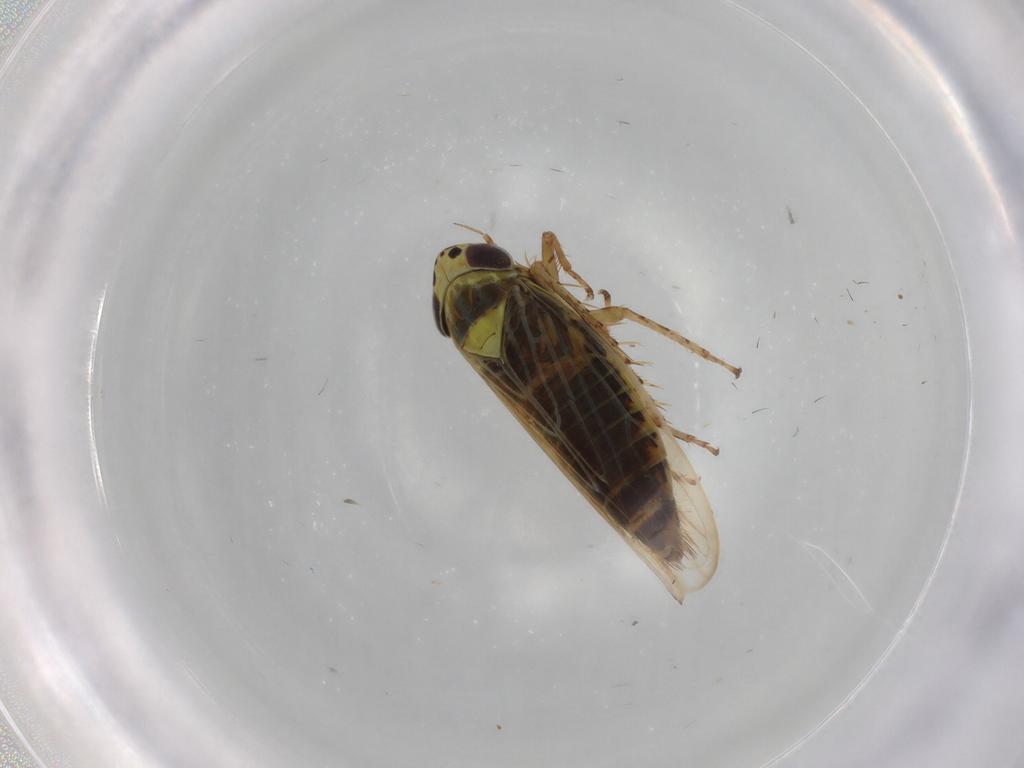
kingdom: Animalia
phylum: Arthropoda
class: Insecta
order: Hemiptera
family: Cicadellidae
